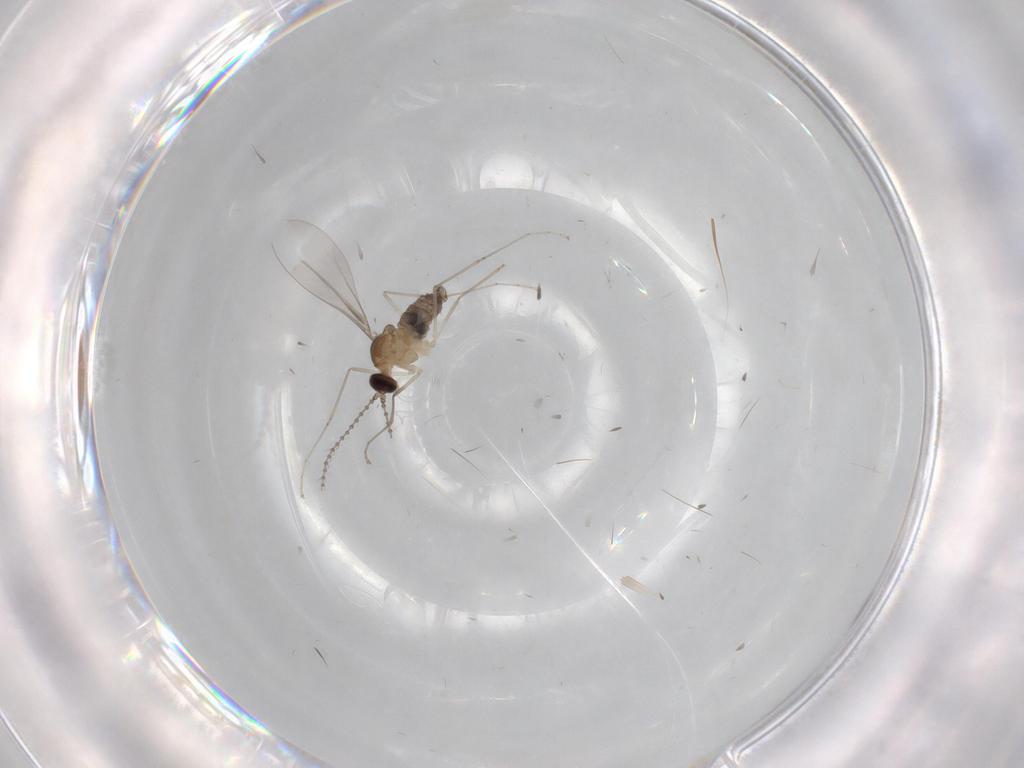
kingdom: Animalia
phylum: Arthropoda
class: Insecta
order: Diptera
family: Cecidomyiidae
